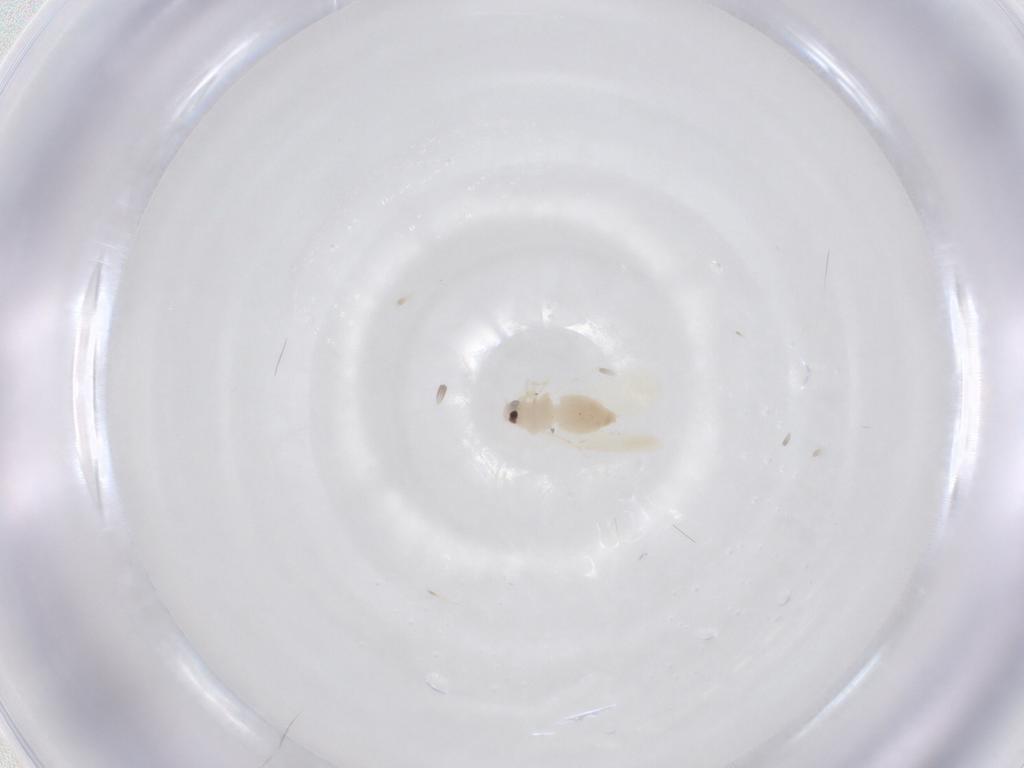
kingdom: Animalia
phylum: Arthropoda
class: Insecta
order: Hemiptera
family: Aleyrodidae
